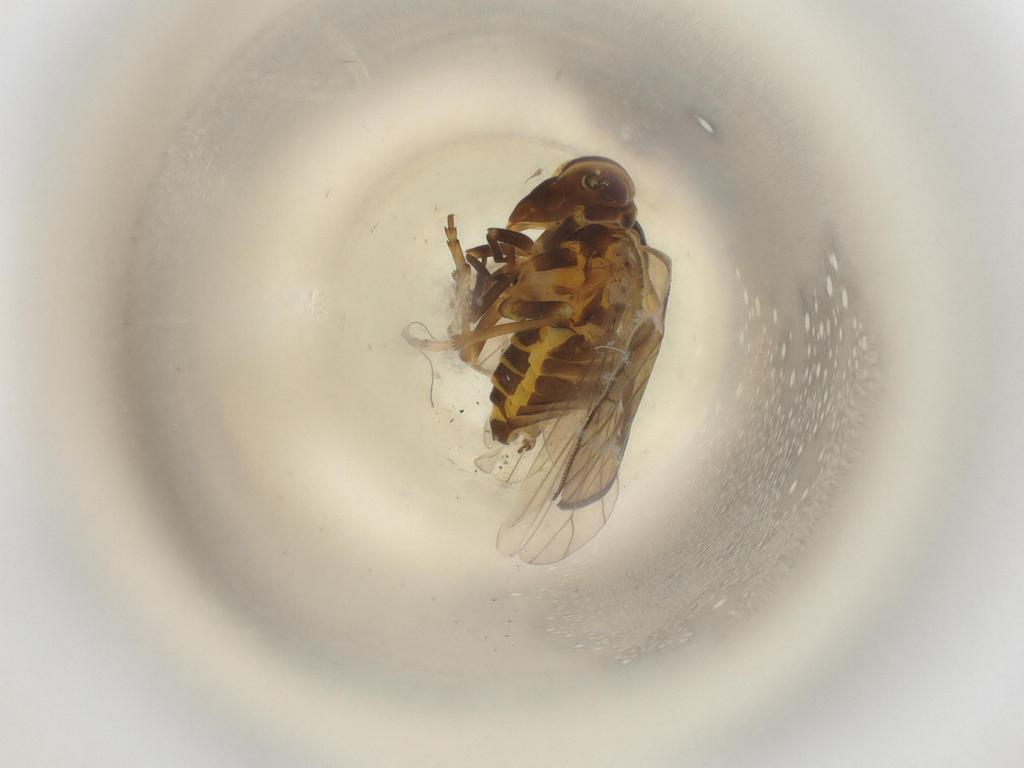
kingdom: Animalia
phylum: Arthropoda
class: Insecta
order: Diptera
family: Psychodidae
